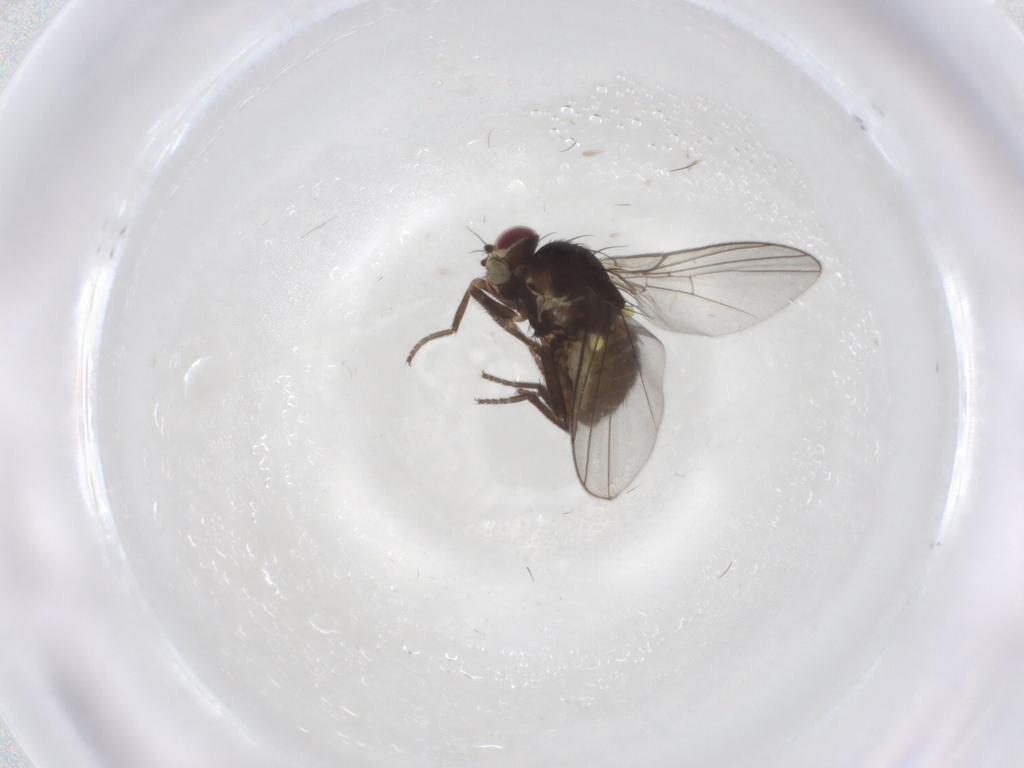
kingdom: Animalia
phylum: Arthropoda
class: Insecta
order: Diptera
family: Agromyzidae
